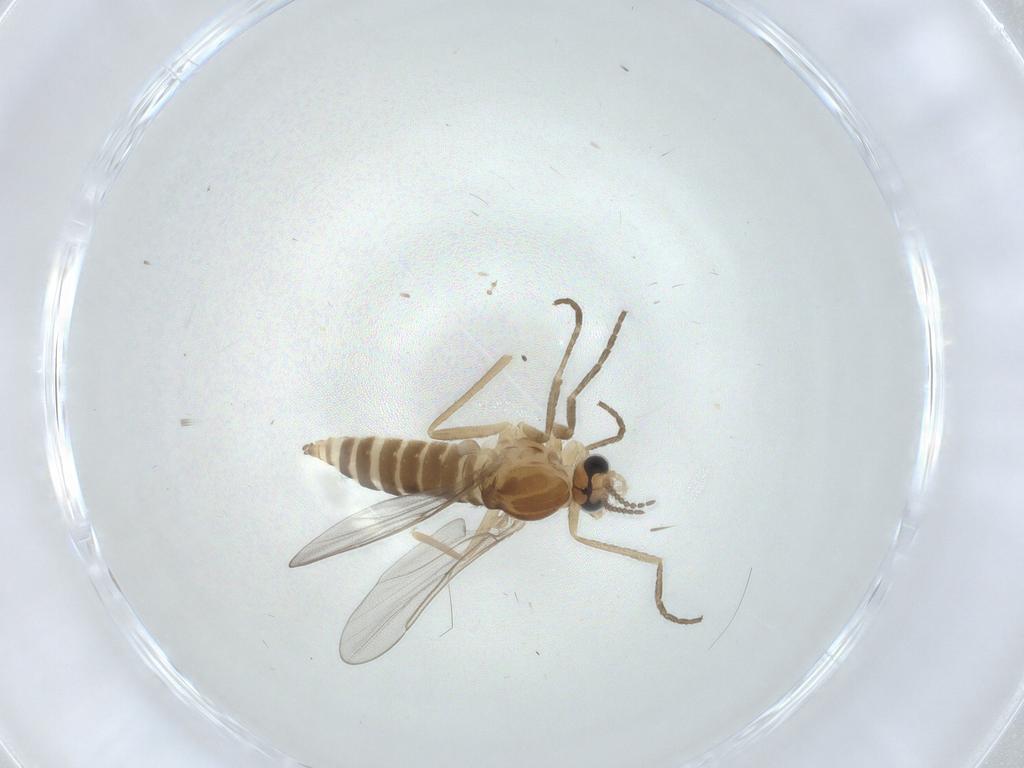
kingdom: Animalia
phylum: Arthropoda
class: Insecta
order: Diptera
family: Cecidomyiidae
